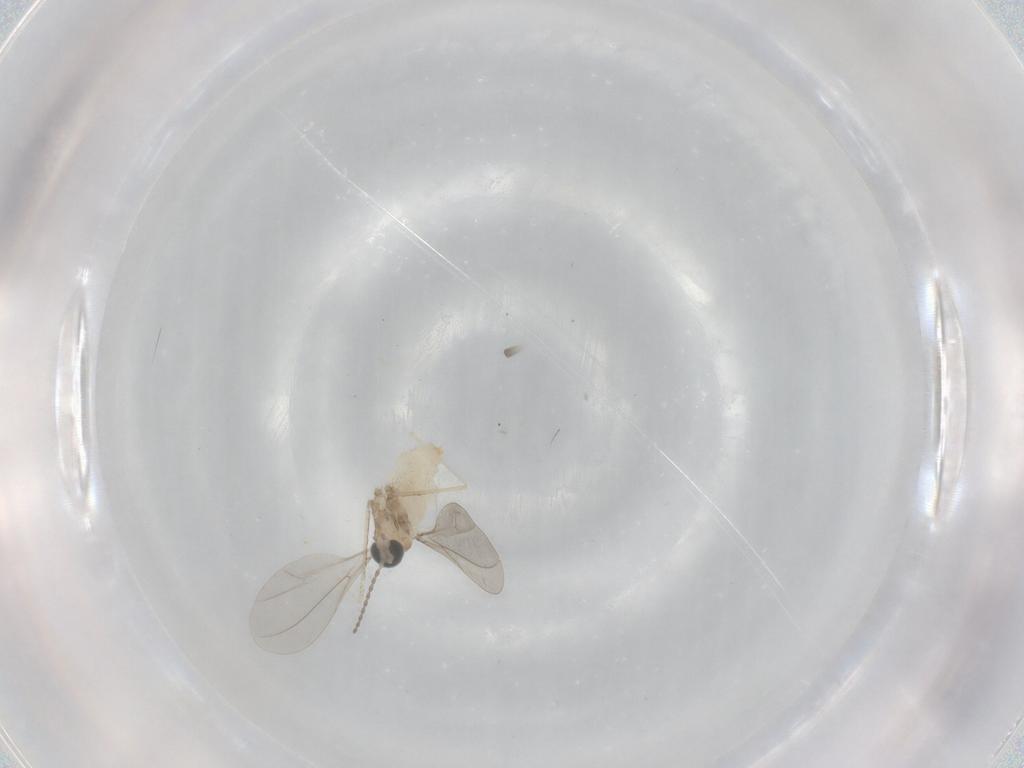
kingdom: Animalia
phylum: Arthropoda
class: Insecta
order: Diptera
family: Cecidomyiidae
